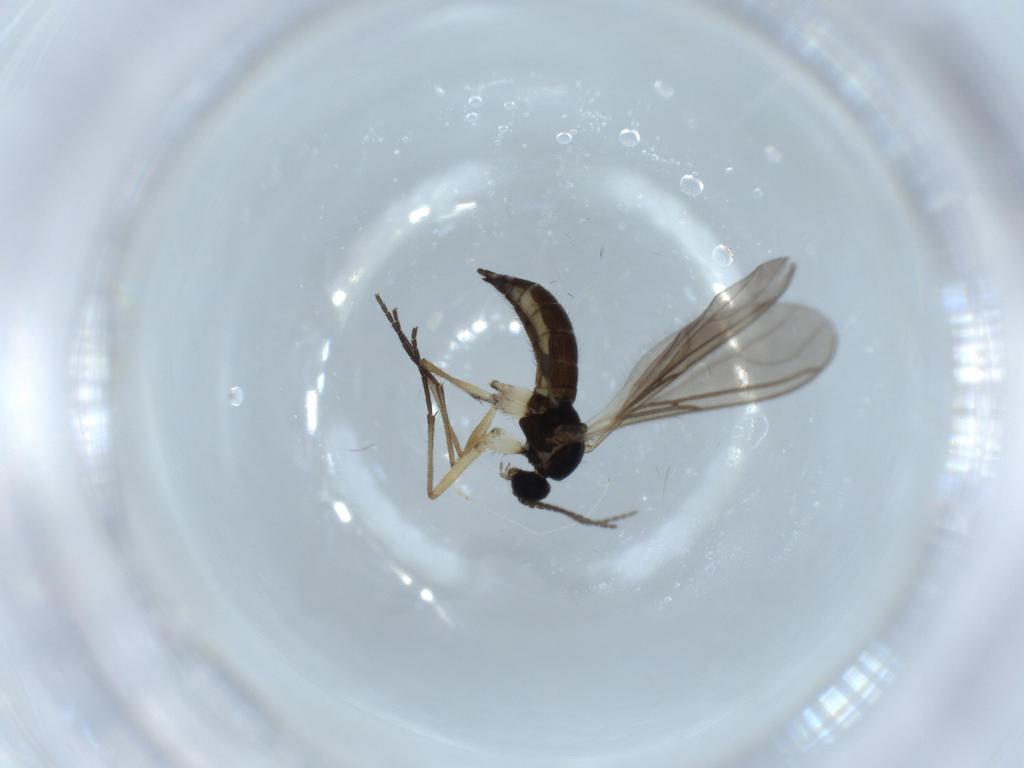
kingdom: Animalia
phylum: Arthropoda
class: Insecta
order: Diptera
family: Sciaridae
